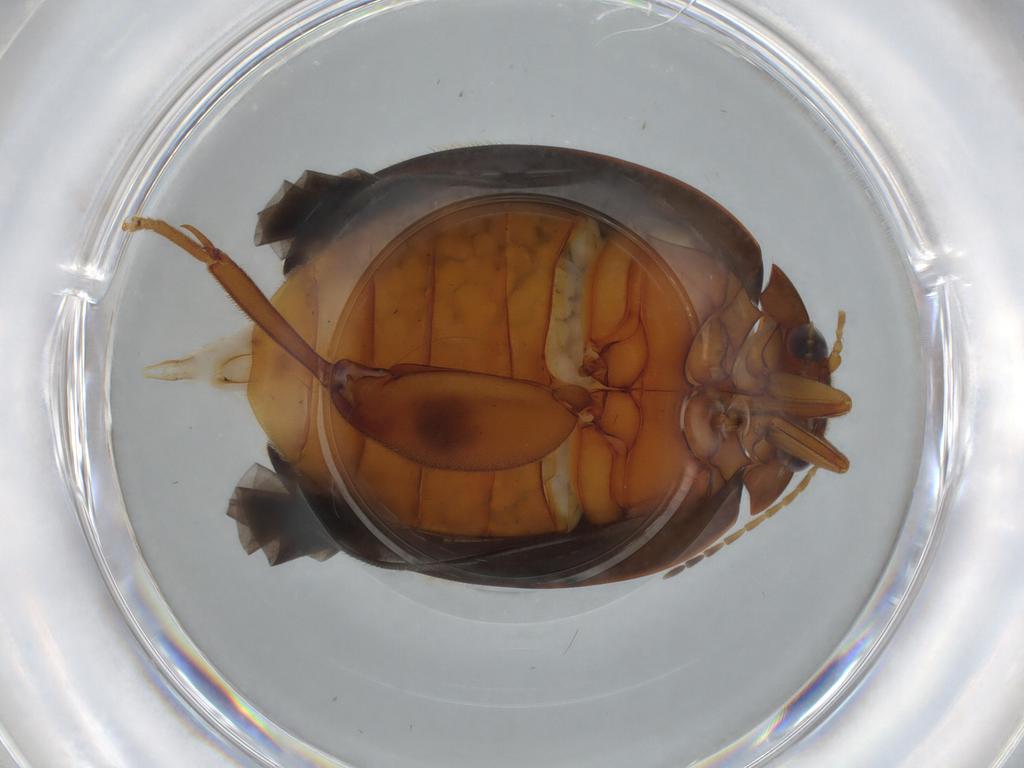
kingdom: Animalia
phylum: Arthropoda
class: Insecta
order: Coleoptera
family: Scirtidae
